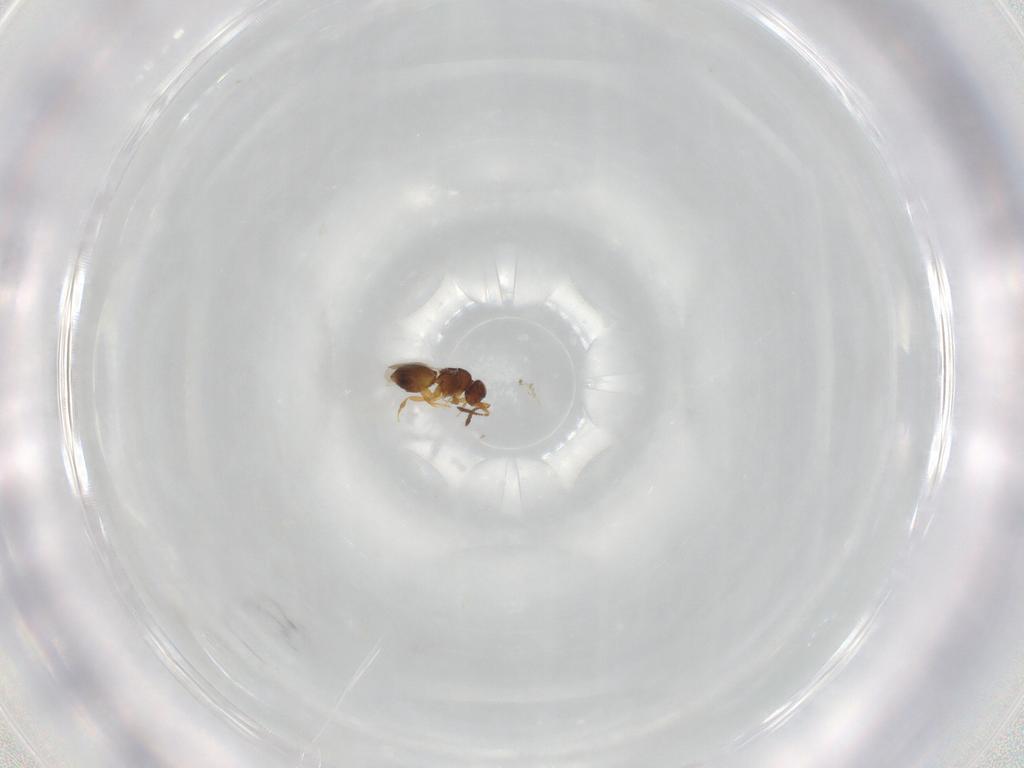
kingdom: Animalia
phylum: Arthropoda
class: Insecta
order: Hymenoptera
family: Ceraphronidae
